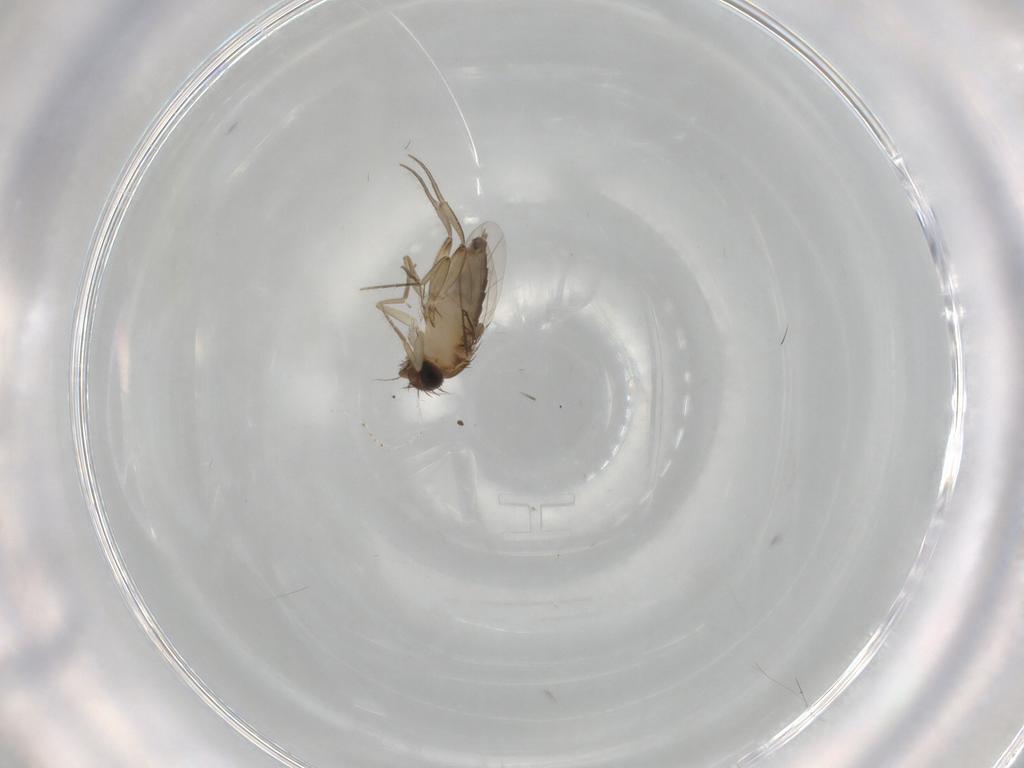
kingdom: Animalia
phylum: Arthropoda
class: Insecta
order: Diptera
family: Phoridae
